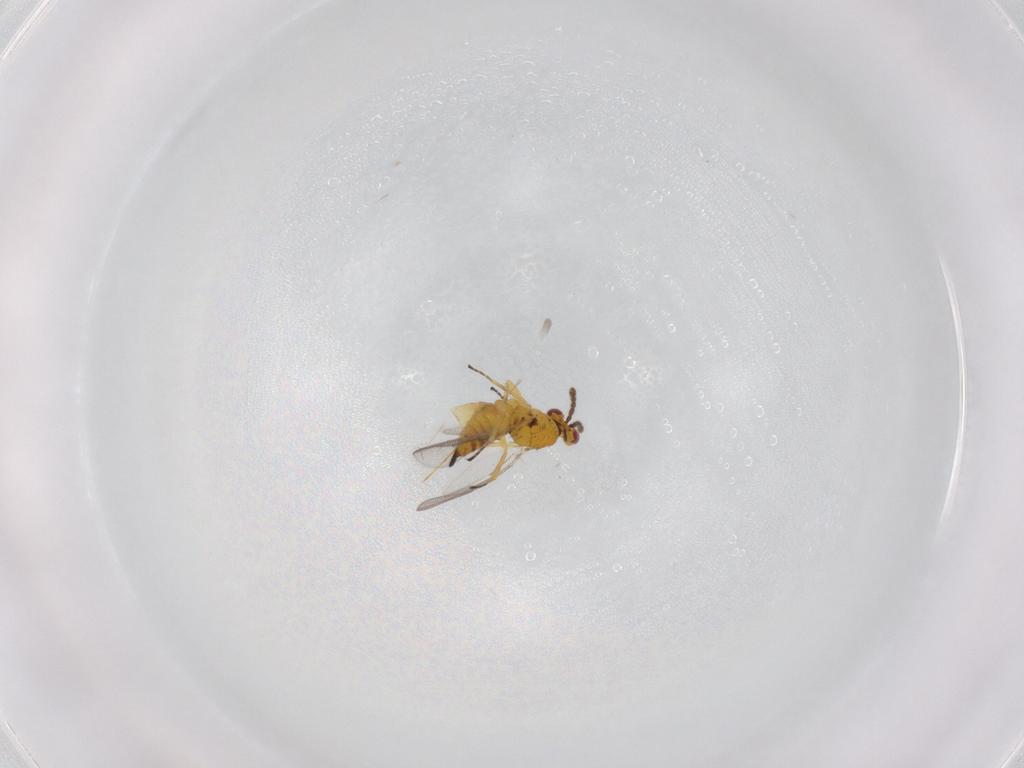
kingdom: Animalia
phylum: Arthropoda
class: Insecta
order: Hymenoptera
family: Eulophidae
